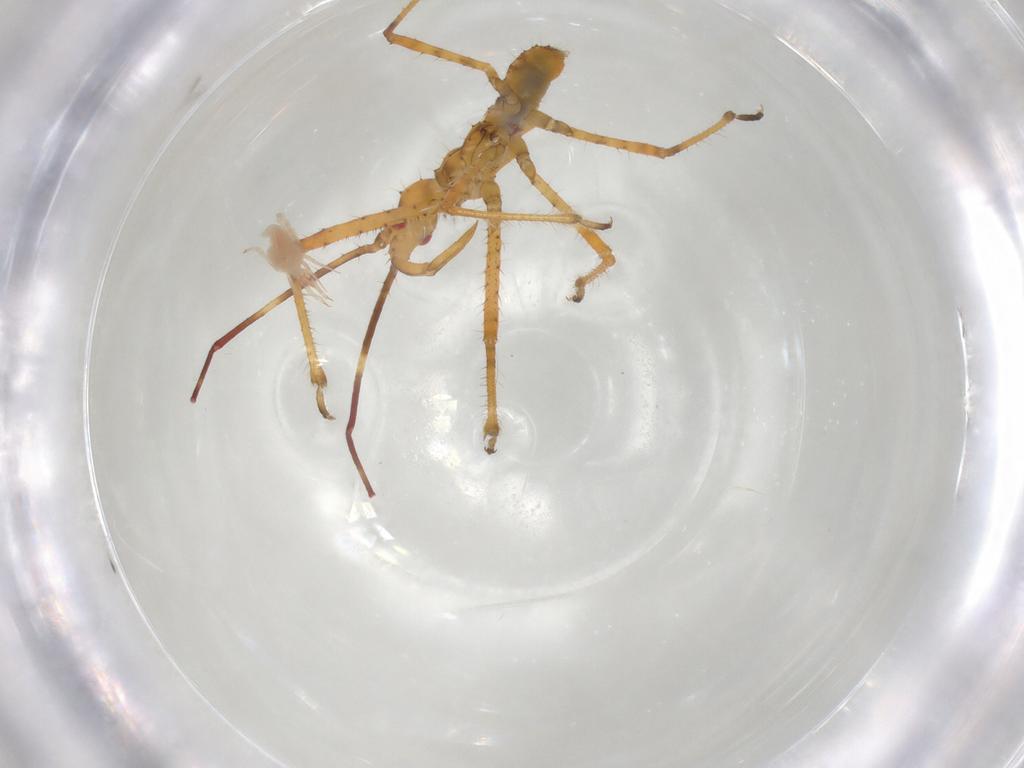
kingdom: Animalia
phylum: Arthropoda
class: Insecta
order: Hemiptera
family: Reduviidae
